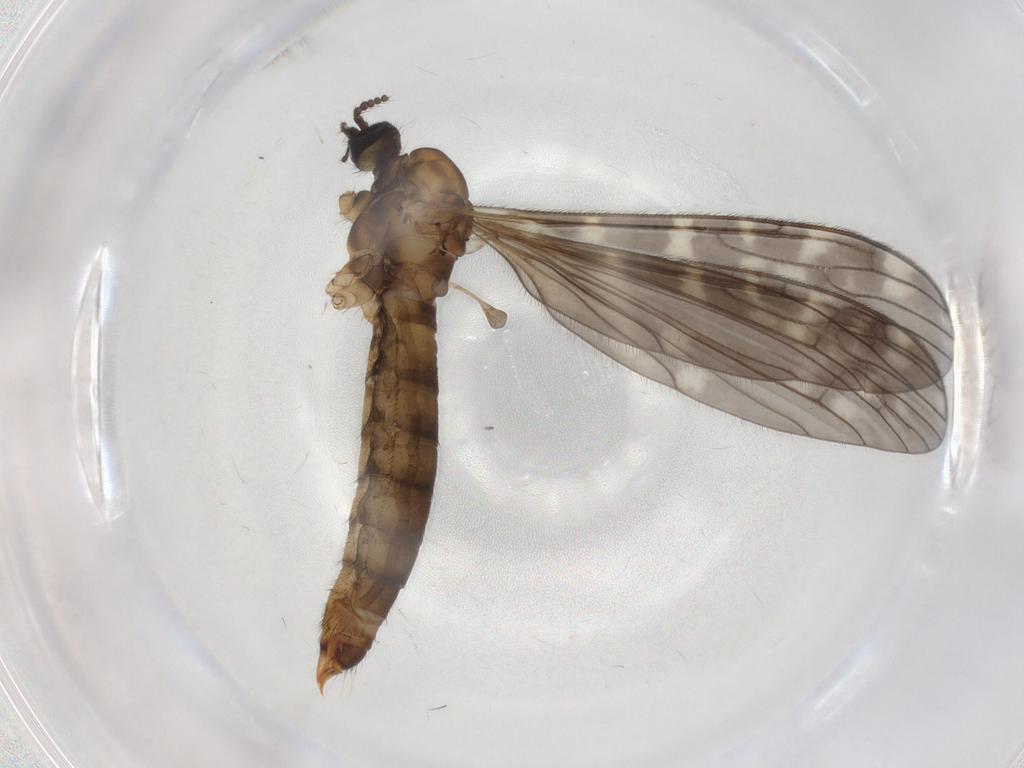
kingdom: Animalia
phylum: Arthropoda
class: Insecta
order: Diptera
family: Limoniidae
